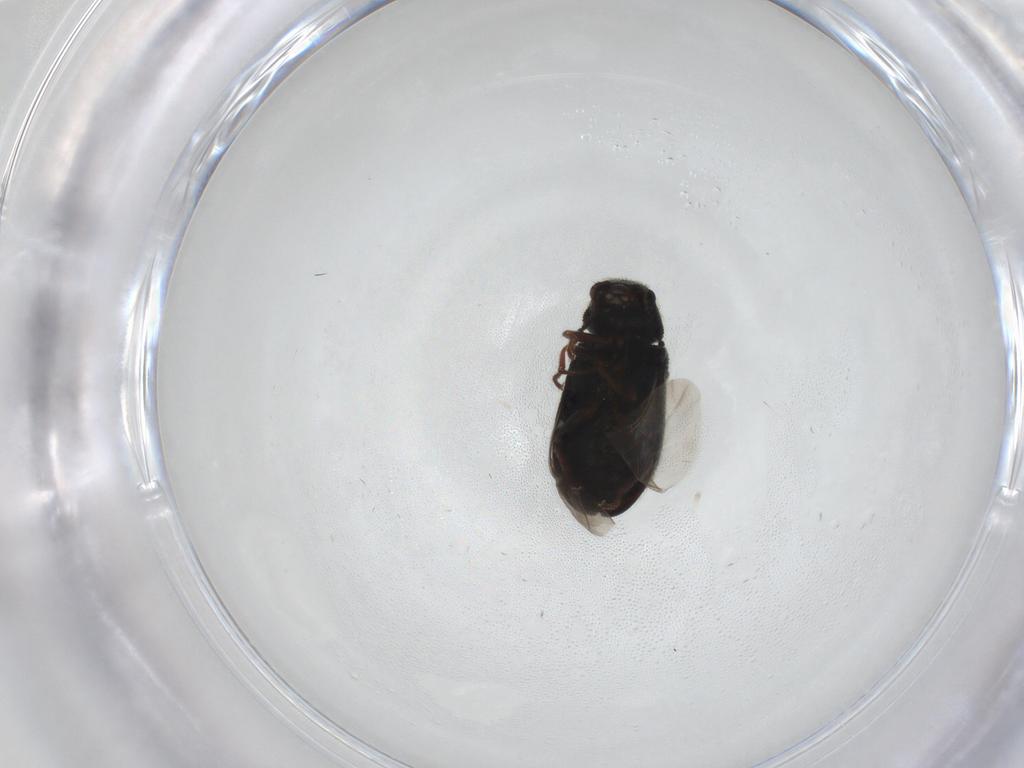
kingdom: Animalia
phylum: Arthropoda
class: Insecta
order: Coleoptera
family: Melyridae
